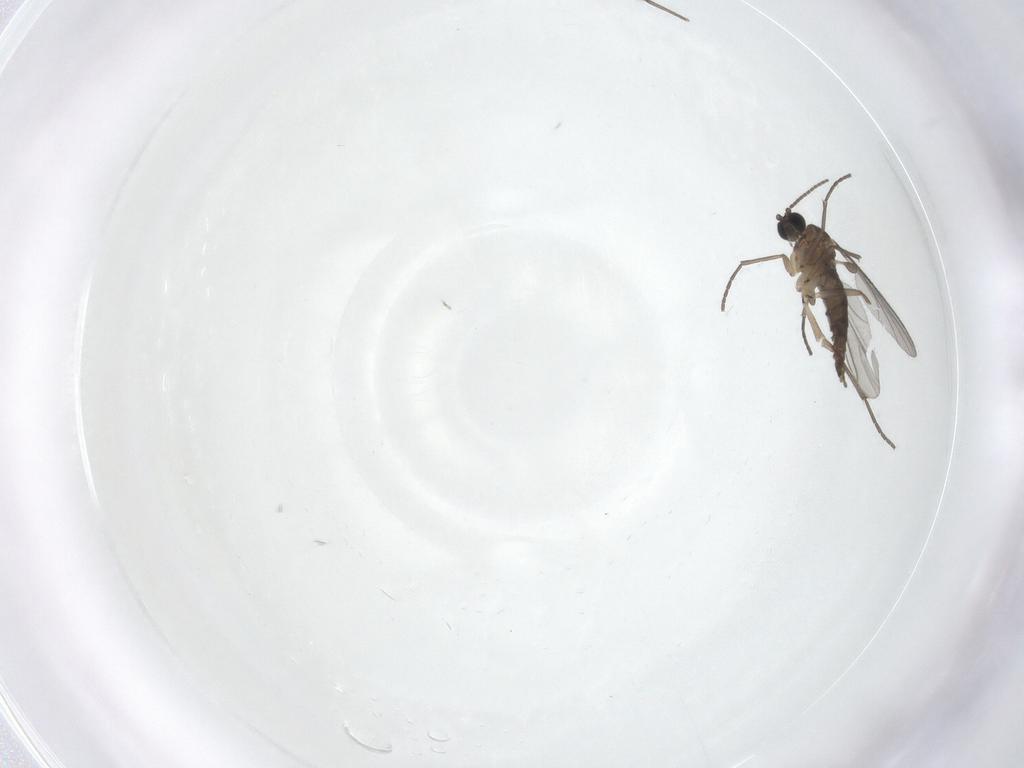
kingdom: Animalia
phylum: Arthropoda
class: Insecta
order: Diptera
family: Sciaridae
